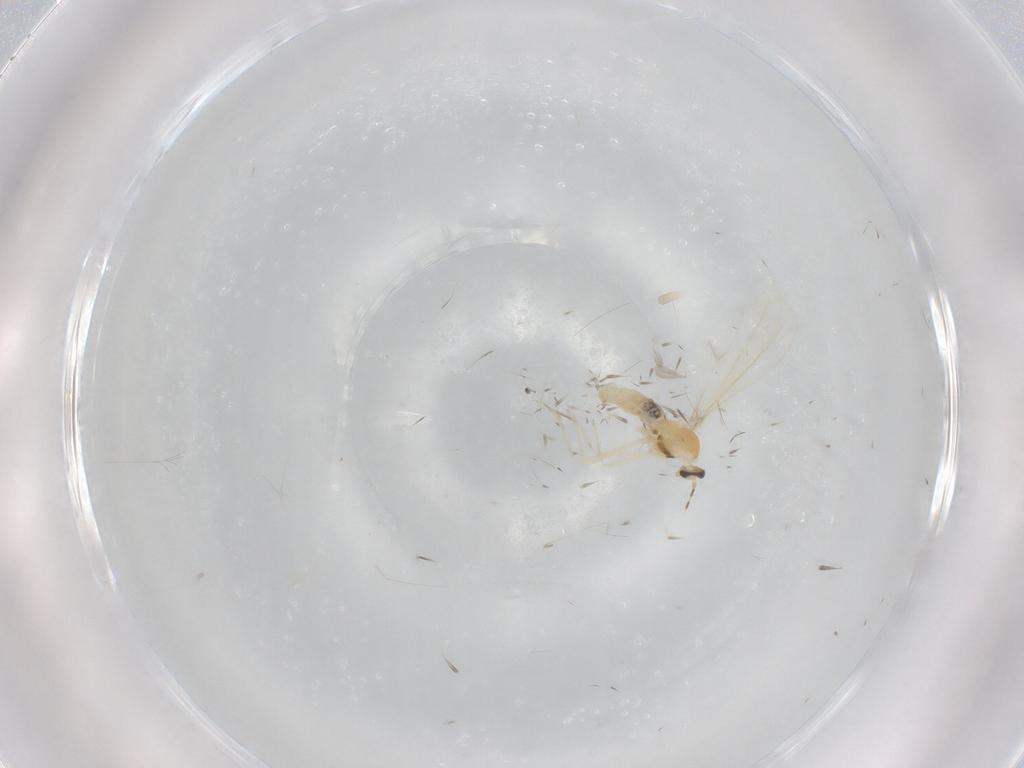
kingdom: Animalia
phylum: Arthropoda
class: Insecta
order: Diptera
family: Cecidomyiidae
